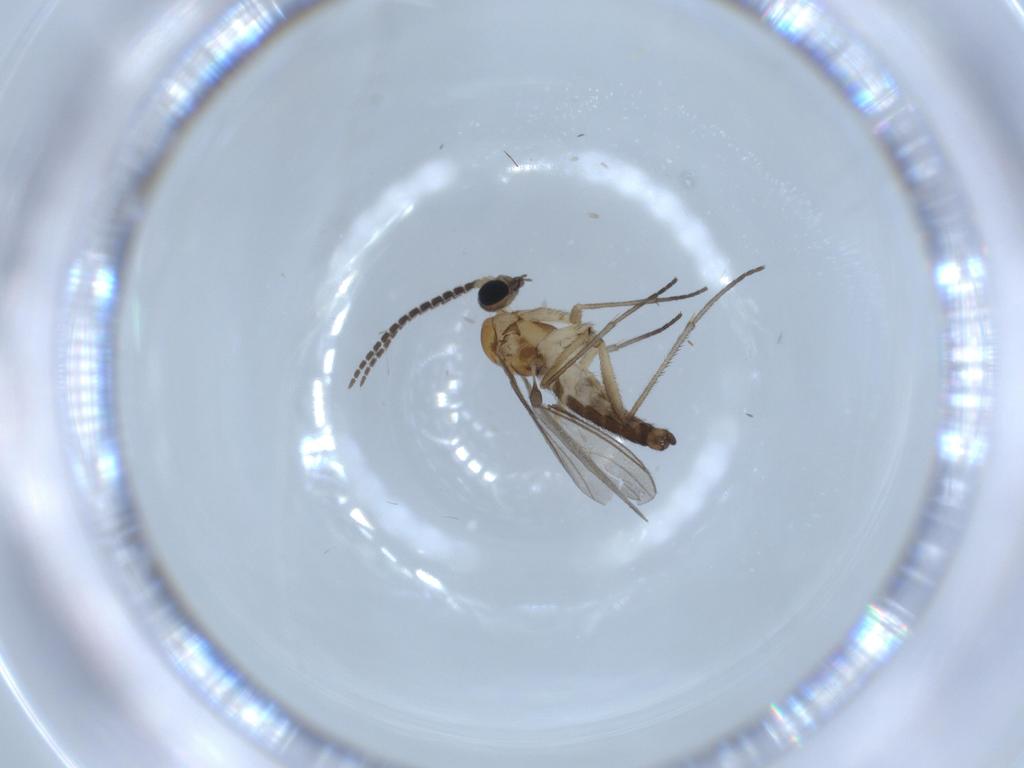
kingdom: Animalia
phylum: Arthropoda
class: Insecta
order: Diptera
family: Sciaridae
